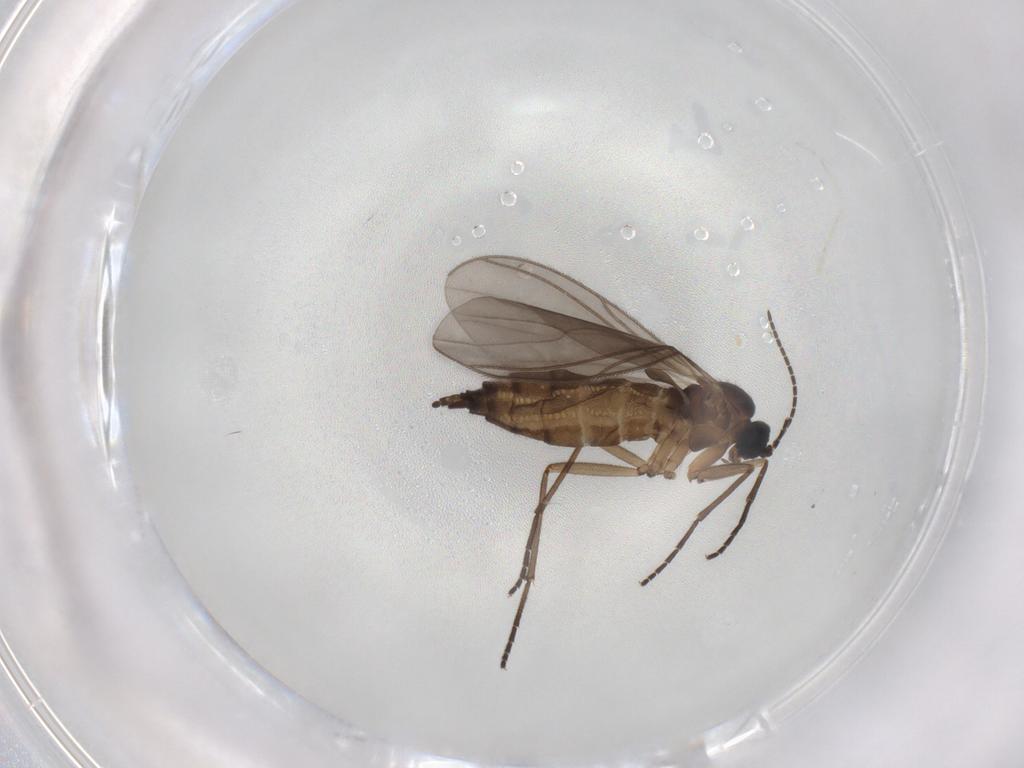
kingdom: Animalia
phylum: Arthropoda
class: Insecta
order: Diptera
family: Sciaridae
